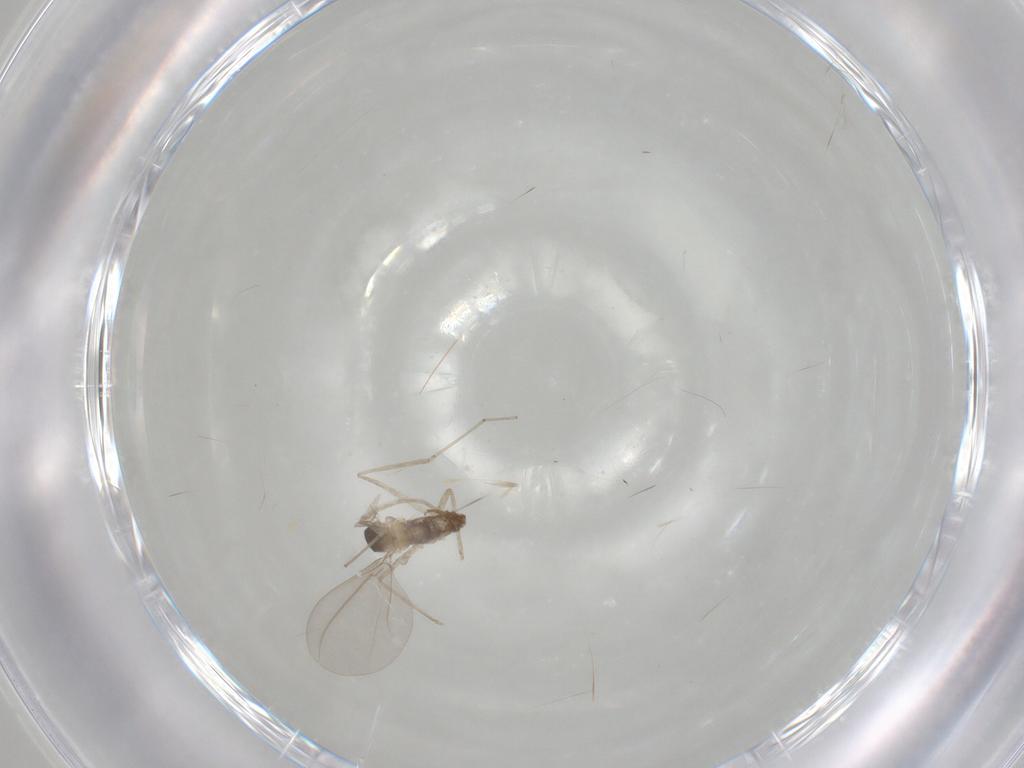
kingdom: Animalia
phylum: Arthropoda
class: Insecta
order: Diptera
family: Cecidomyiidae
